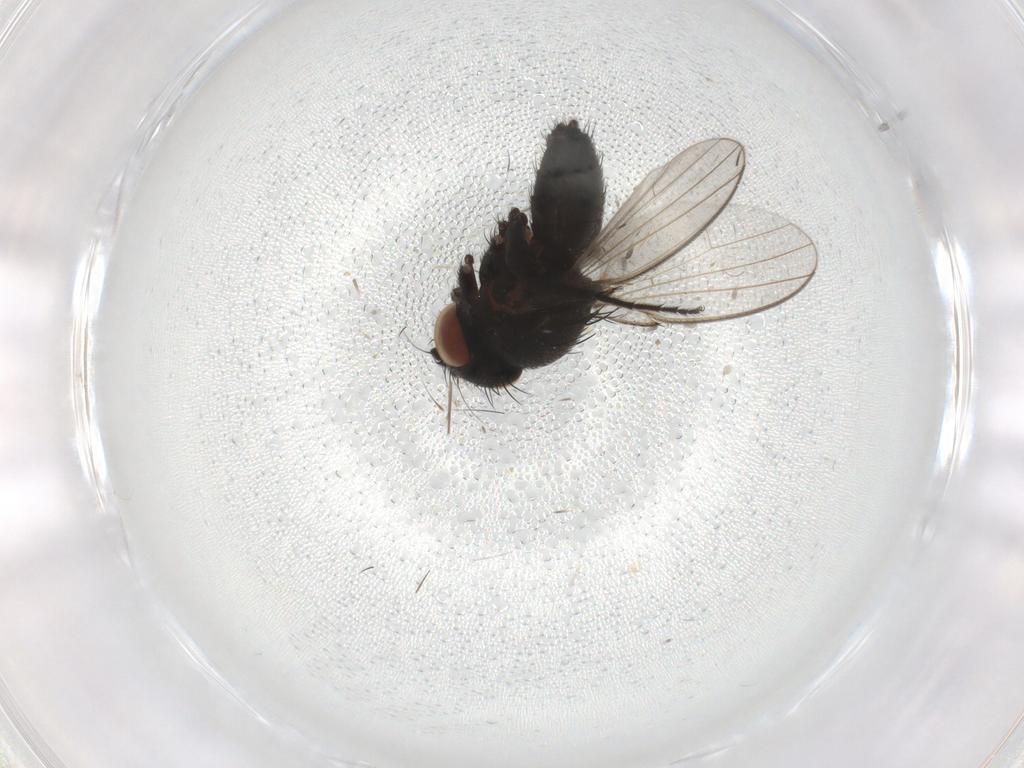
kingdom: Animalia
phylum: Arthropoda
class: Insecta
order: Diptera
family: Milichiidae
